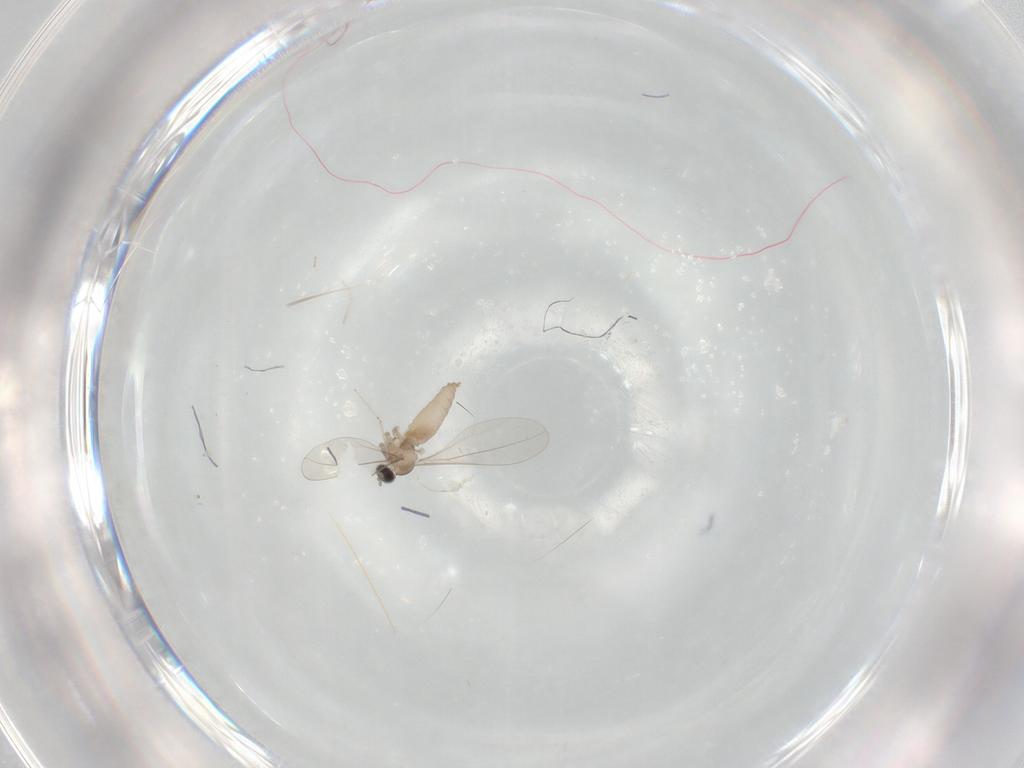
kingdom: Animalia
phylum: Arthropoda
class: Insecta
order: Diptera
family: Cecidomyiidae
